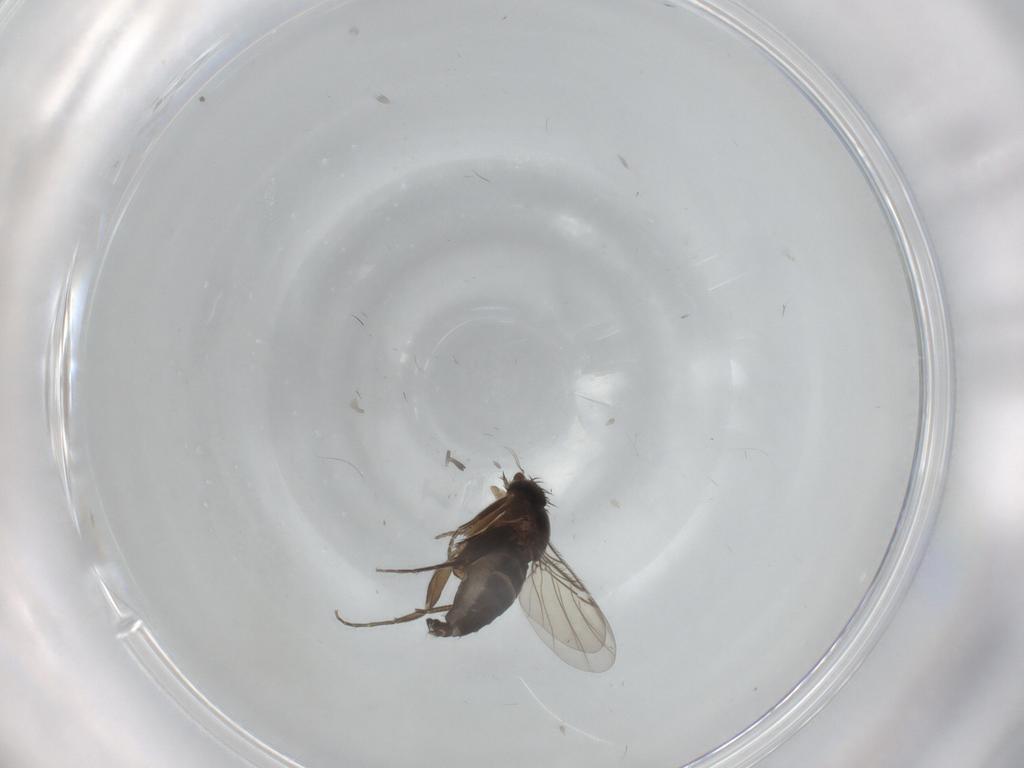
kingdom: Animalia
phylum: Arthropoda
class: Insecta
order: Diptera
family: Phoridae
